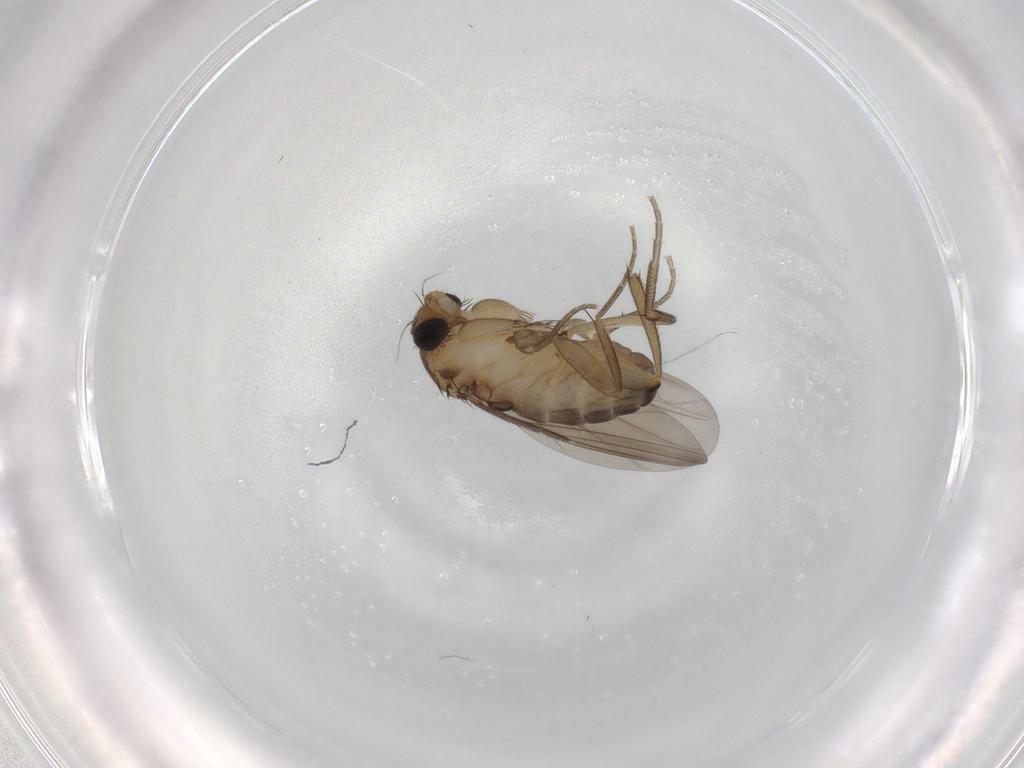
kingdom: Animalia
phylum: Arthropoda
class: Insecta
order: Diptera
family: Phoridae
